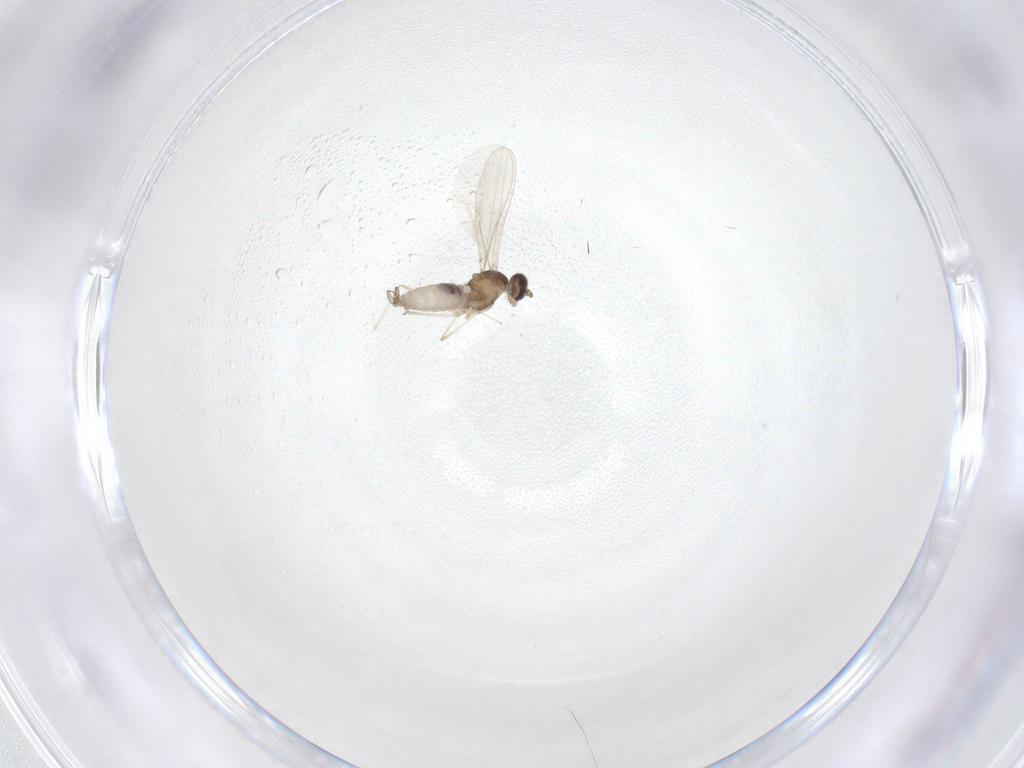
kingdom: Animalia
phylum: Arthropoda
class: Insecta
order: Diptera
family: Cecidomyiidae
